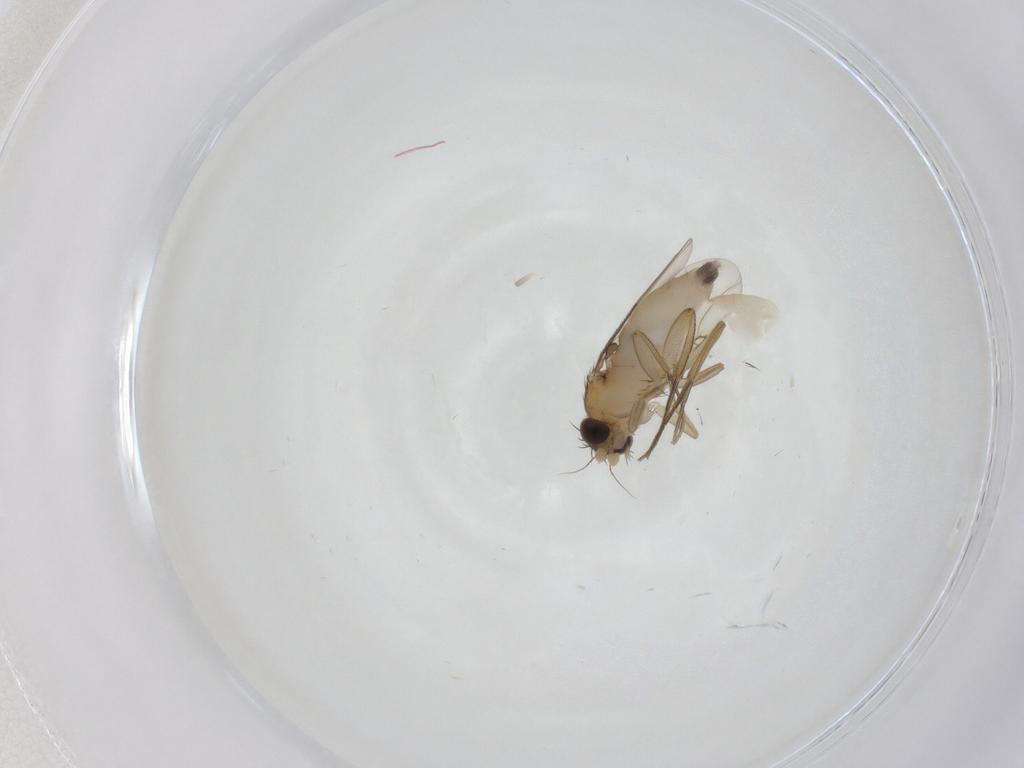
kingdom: Animalia
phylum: Arthropoda
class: Insecta
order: Diptera
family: Phoridae
